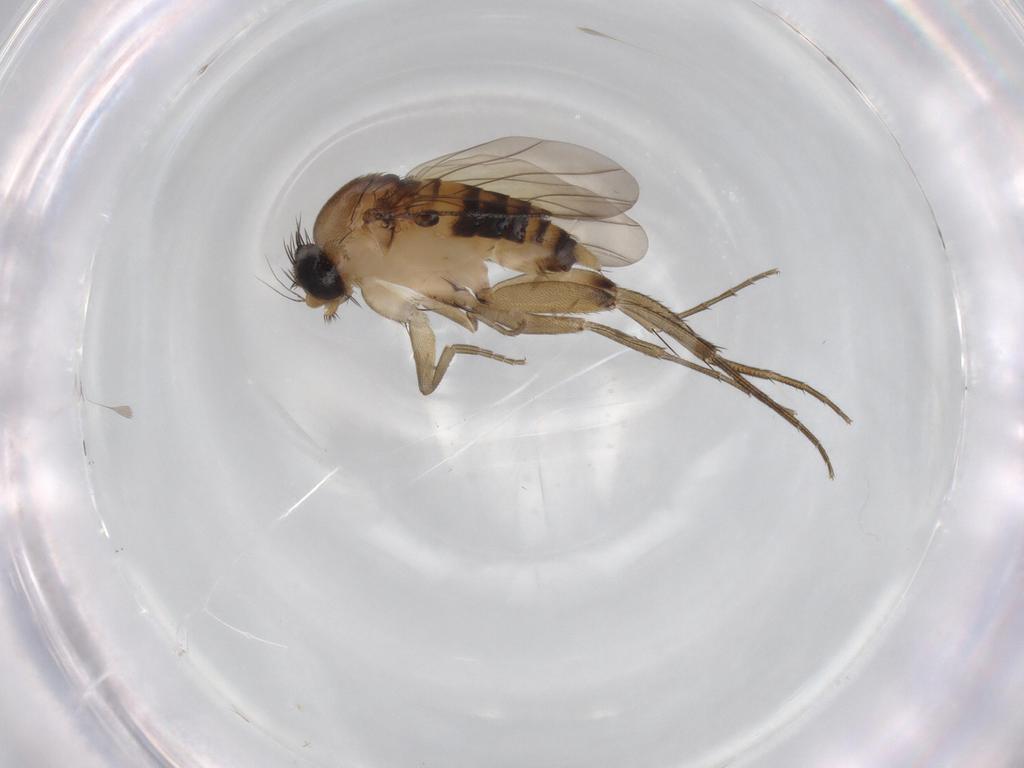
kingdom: Animalia
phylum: Arthropoda
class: Insecta
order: Diptera
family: Phoridae
